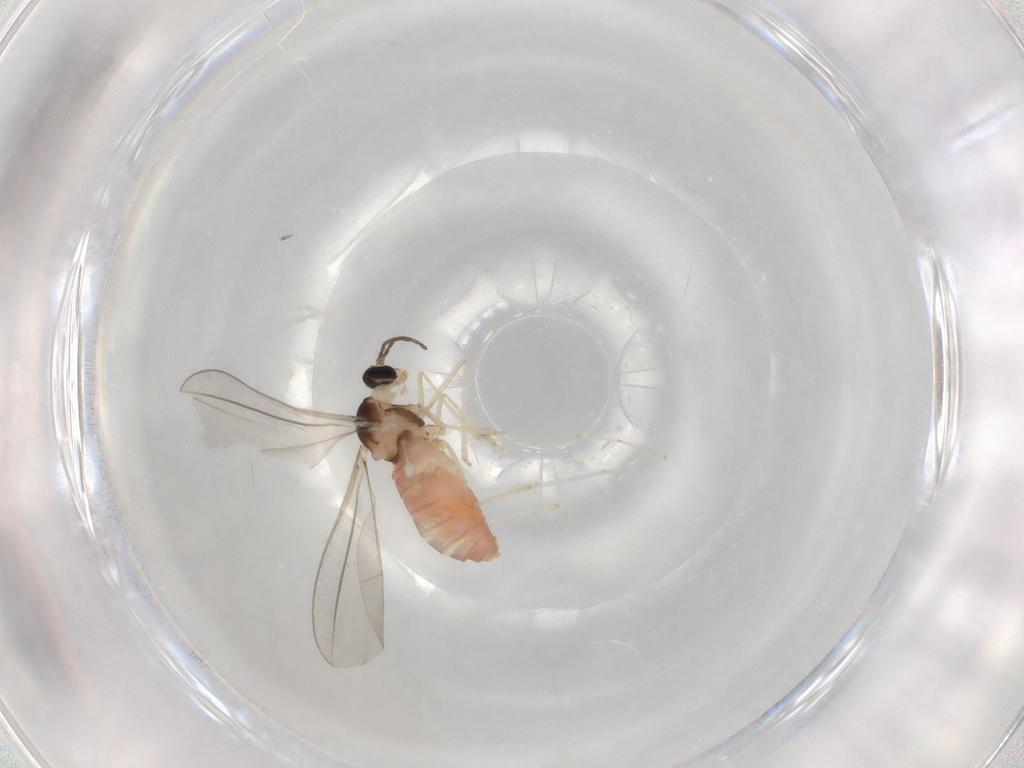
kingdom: Animalia
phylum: Arthropoda
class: Insecta
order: Diptera
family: Cecidomyiidae
